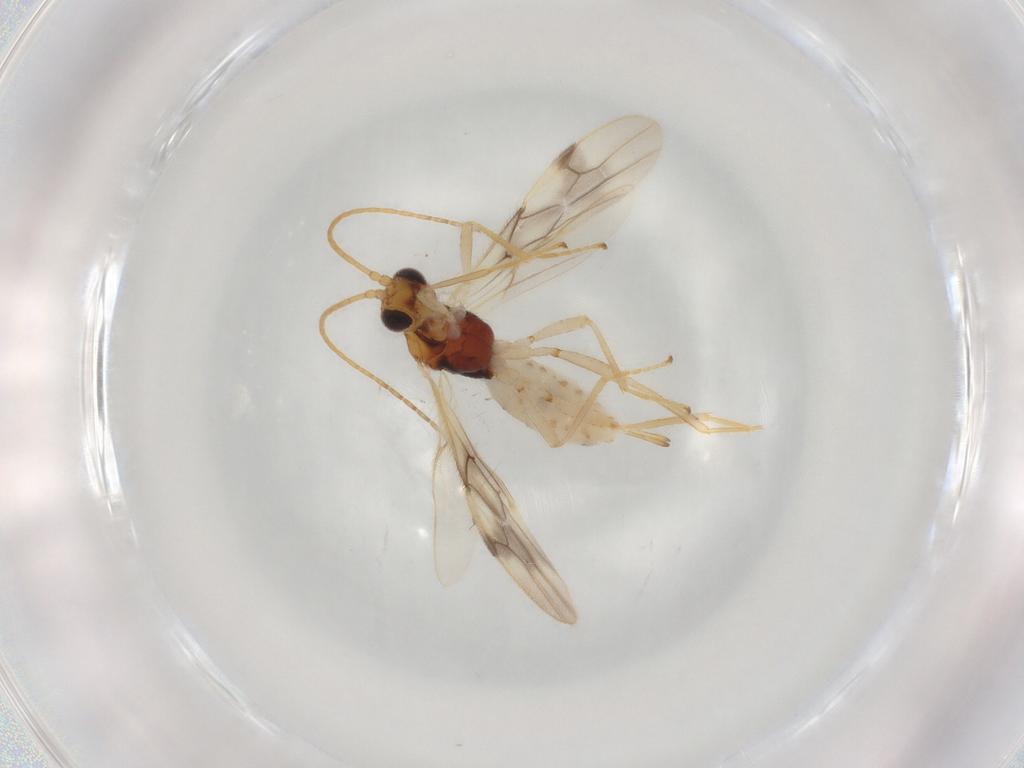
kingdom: Animalia
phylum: Arthropoda
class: Insecta
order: Hymenoptera
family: Braconidae
